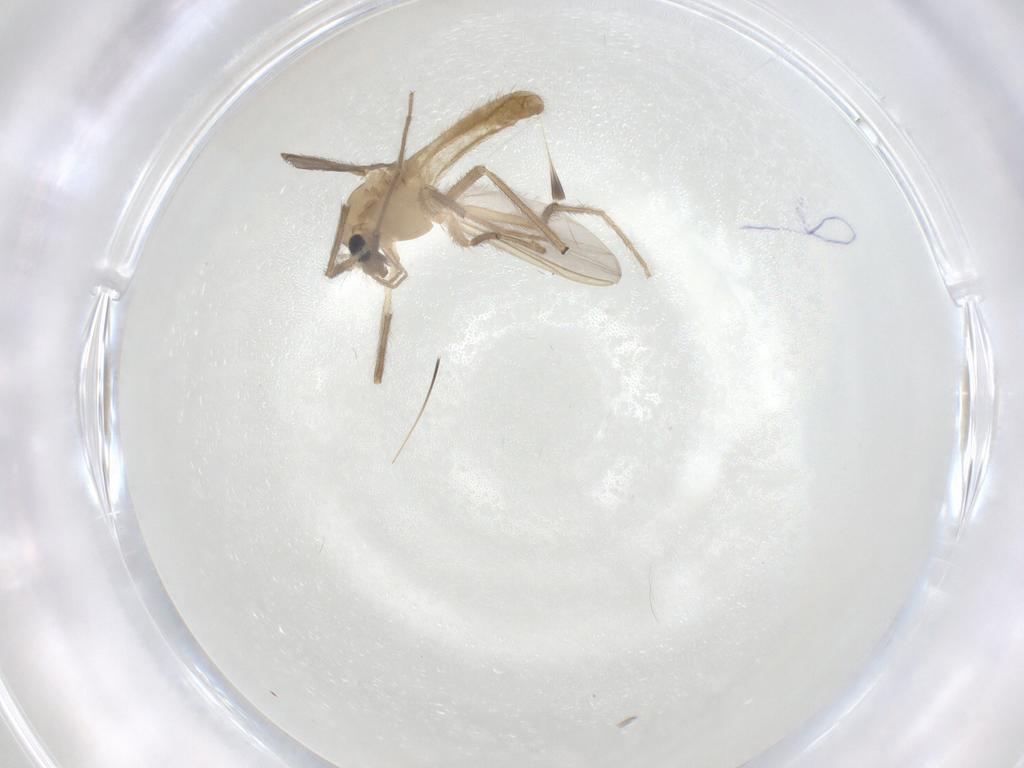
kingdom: Animalia
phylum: Arthropoda
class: Insecta
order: Diptera
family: Chironomidae
